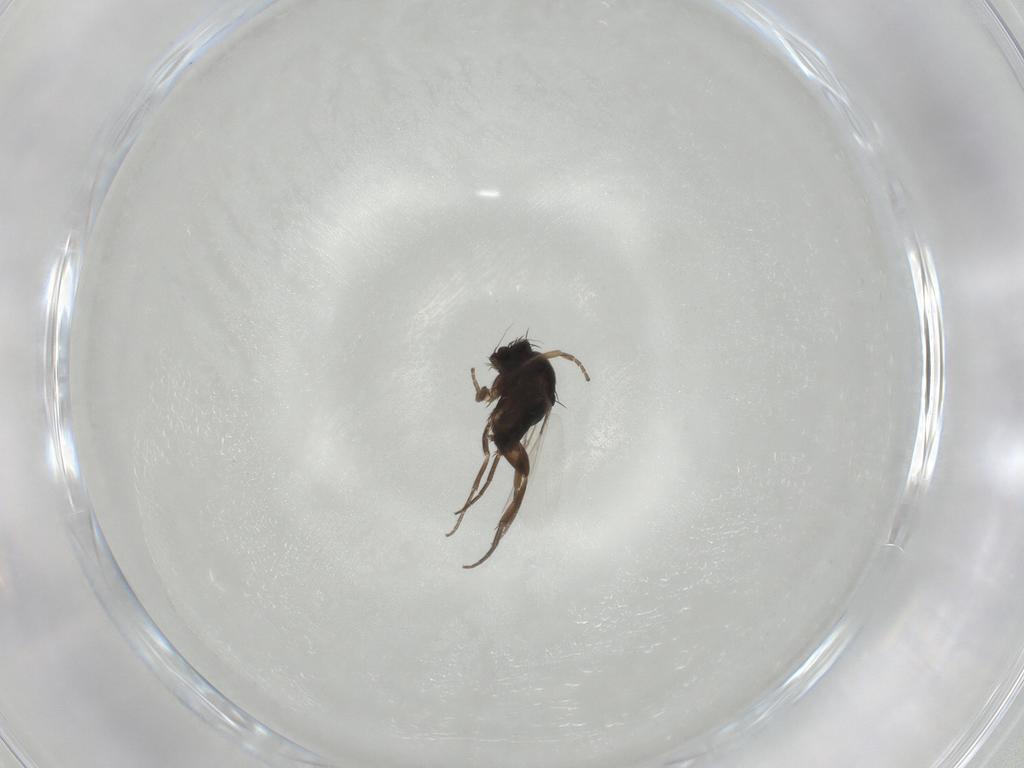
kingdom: Animalia
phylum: Arthropoda
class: Insecta
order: Diptera
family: Phoridae
